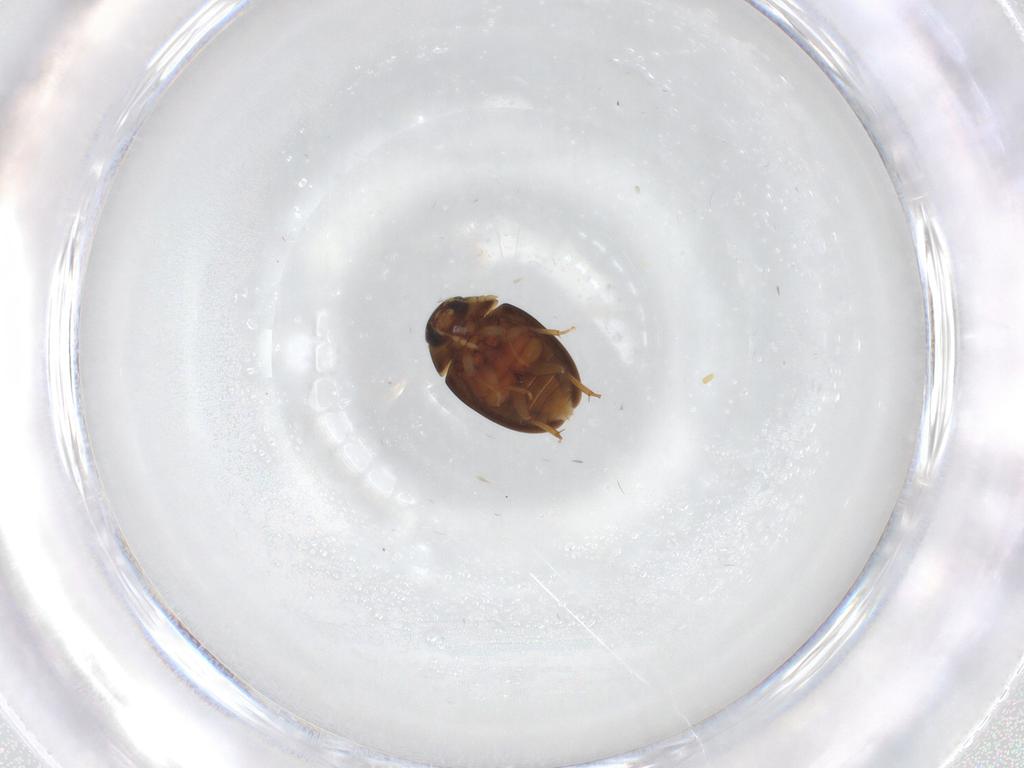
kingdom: Animalia
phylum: Arthropoda
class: Insecta
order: Coleoptera
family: Phalacridae
